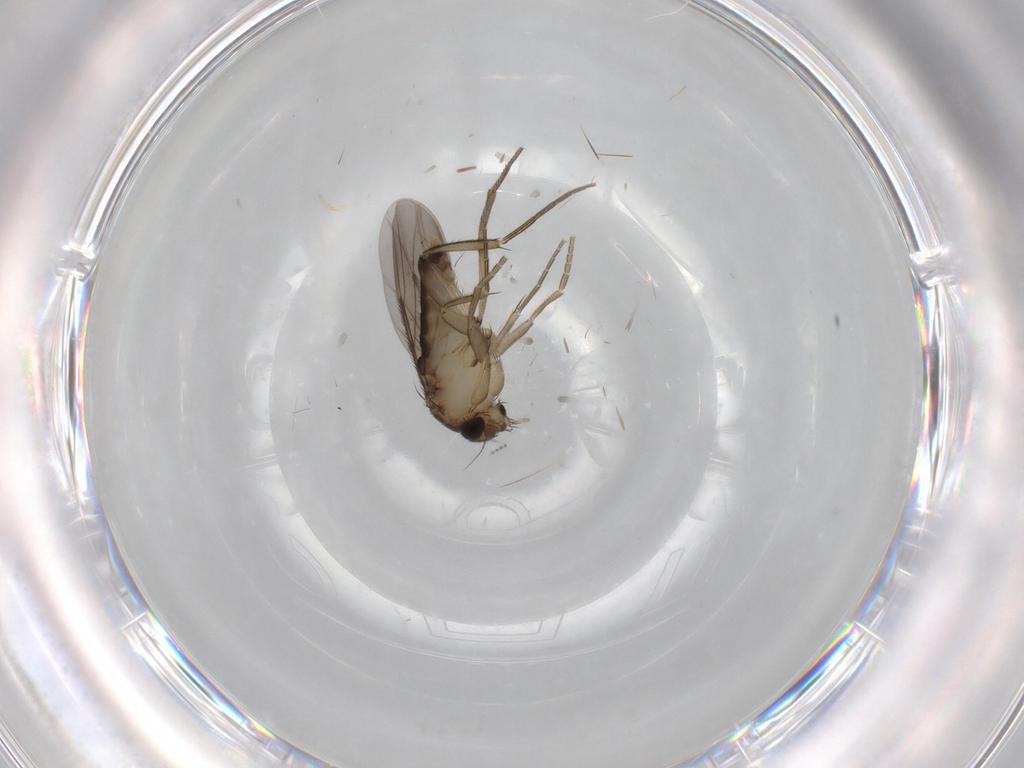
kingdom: Animalia
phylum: Arthropoda
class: Insecta
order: Diptera
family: Phoridae
